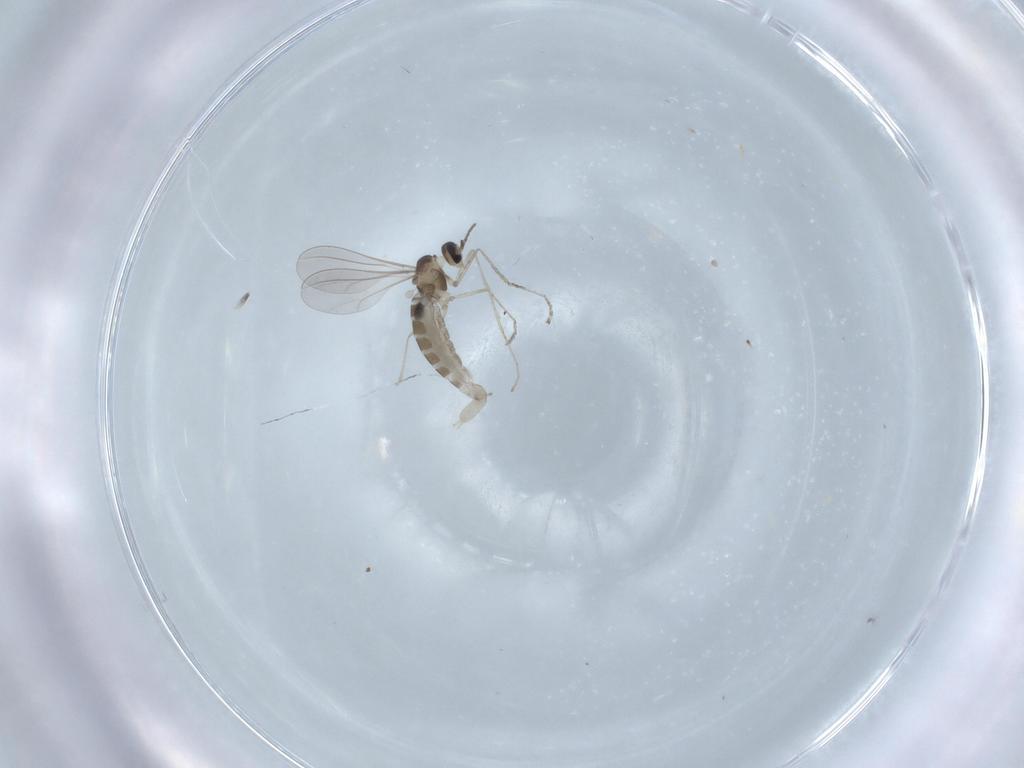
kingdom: Animalia
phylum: Arthropoda
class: Insecta
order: Diptera
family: Cecidomyiidae
